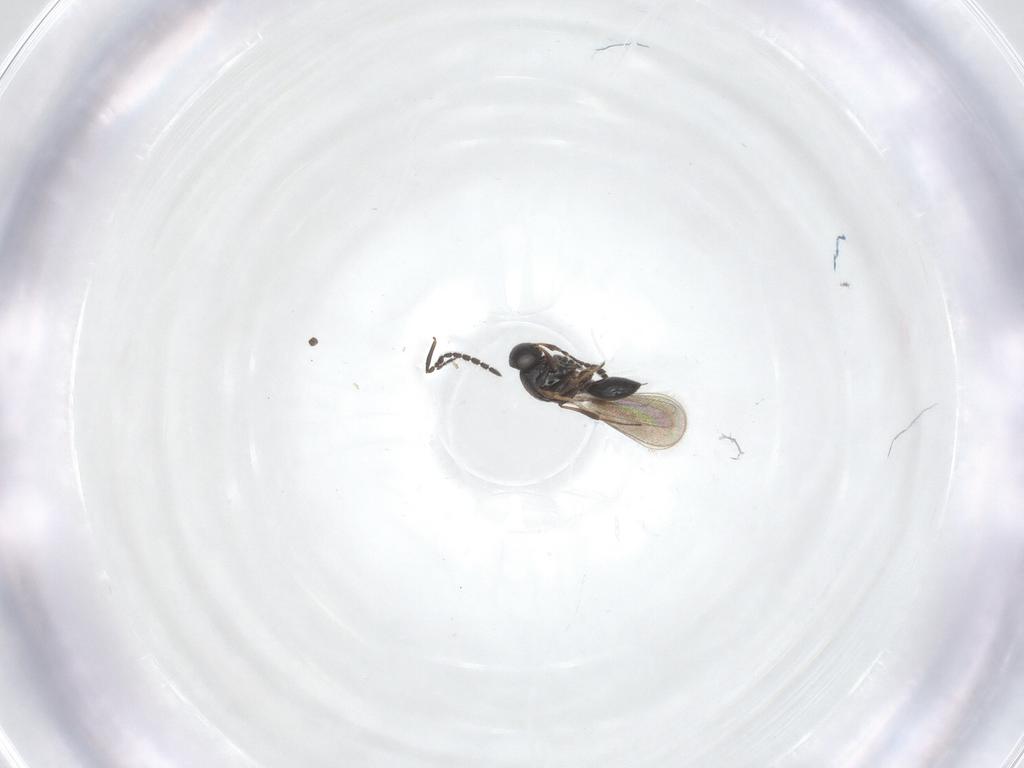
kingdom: Animalia
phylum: Arthropoda
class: Insecta
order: Hymenoptera
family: Platygastridae
